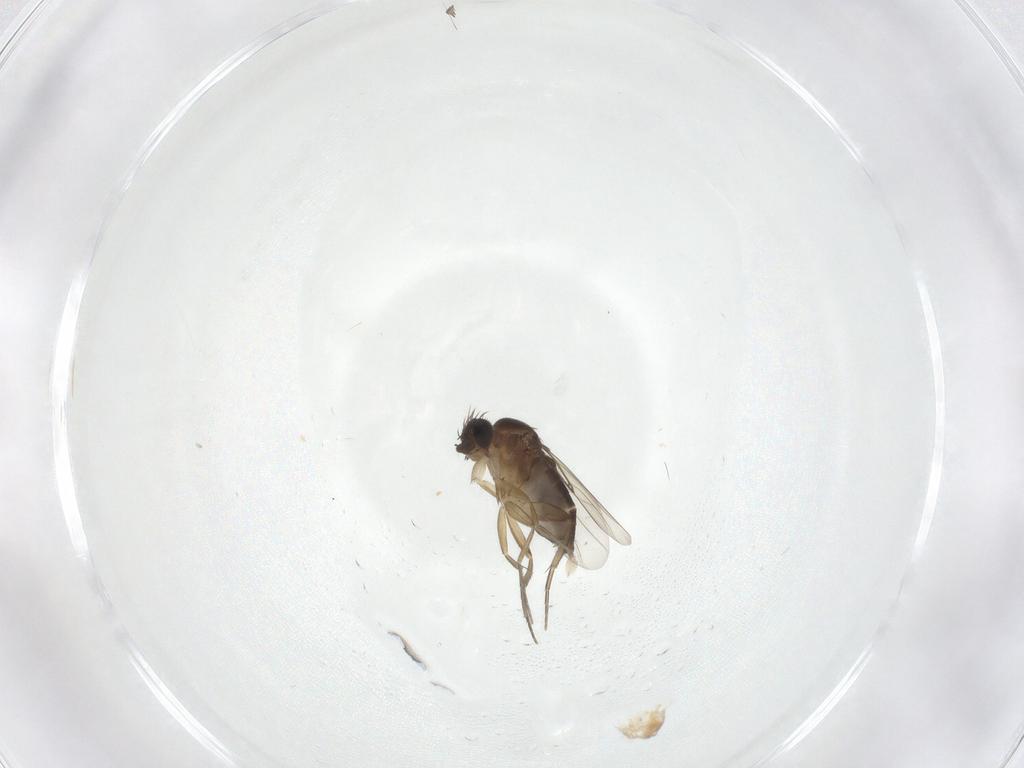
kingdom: Animalia
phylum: Arthropoda
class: Insecta
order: Diptera
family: Phoridae
